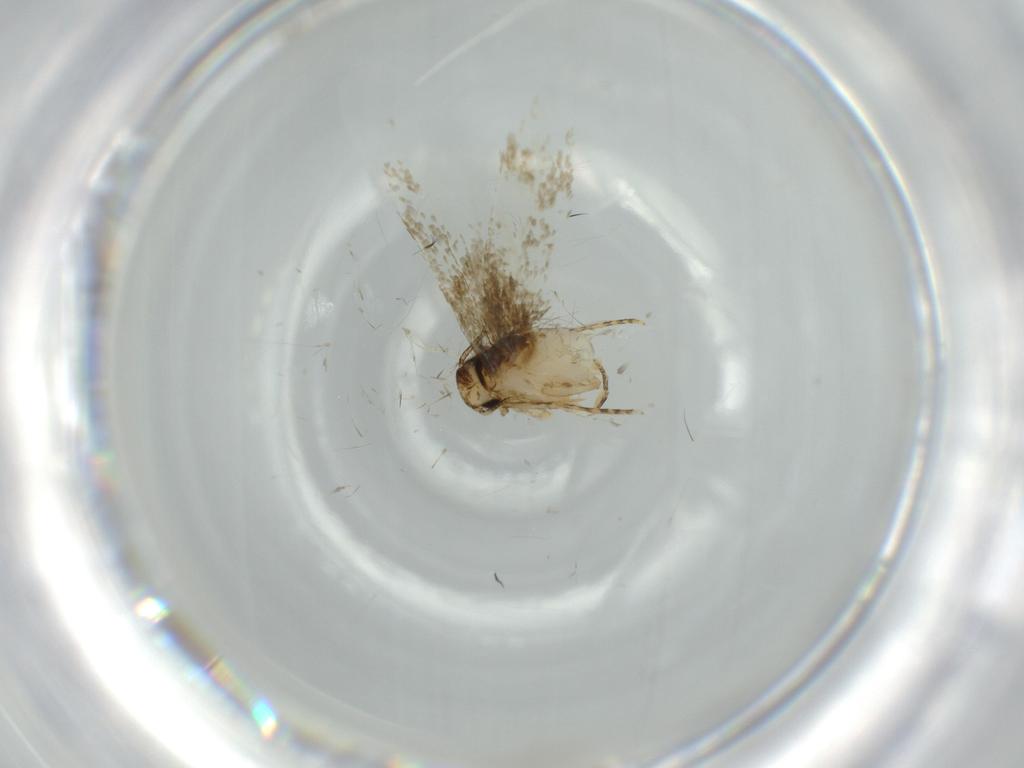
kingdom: Animalia
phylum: Arthropoda
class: Insecta
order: Lepidoptera
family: Tineidae
